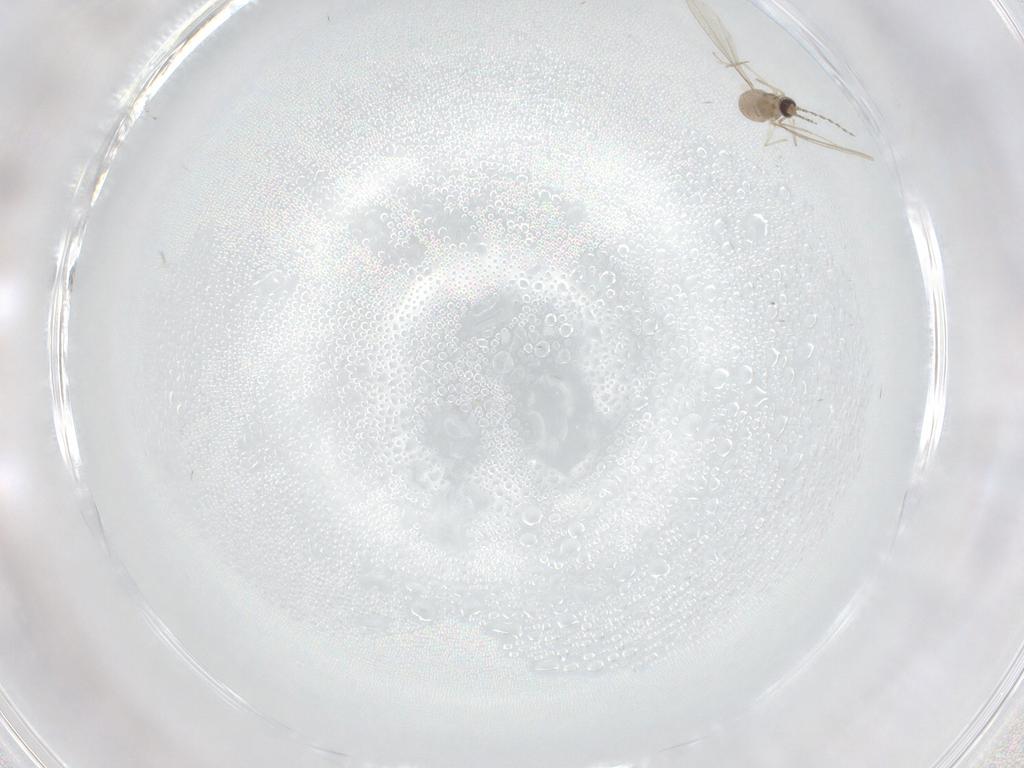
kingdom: Animalia
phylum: Arthropoda
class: Insecta
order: Diptera
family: Cecidomyiidae
